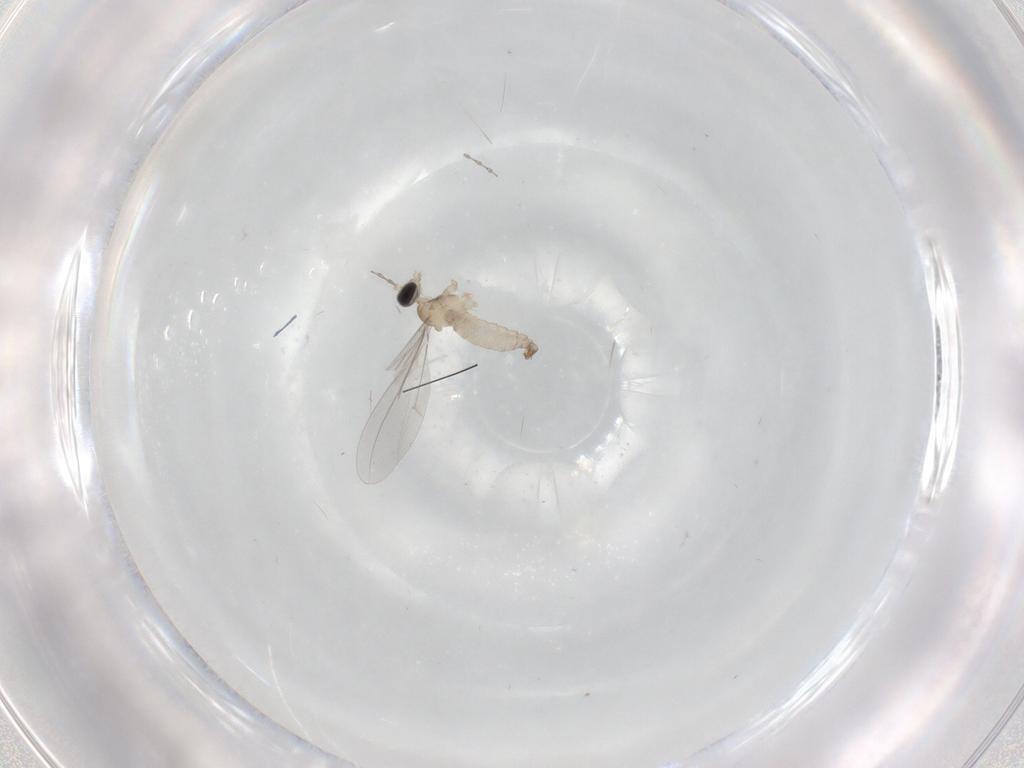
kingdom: Animalia
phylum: Arthropoda
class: Insecta
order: Diptera
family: Cecidomyiidae
